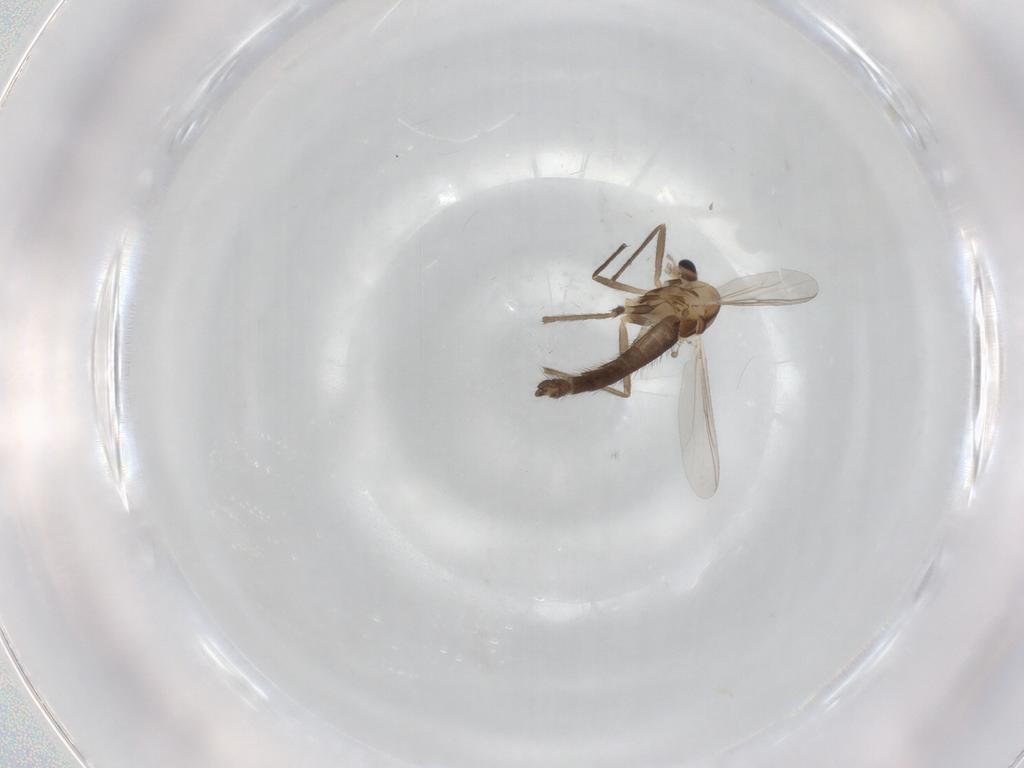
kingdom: Animalia
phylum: Arthropoda
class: Insecta
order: Diptera
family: Chironomidae
